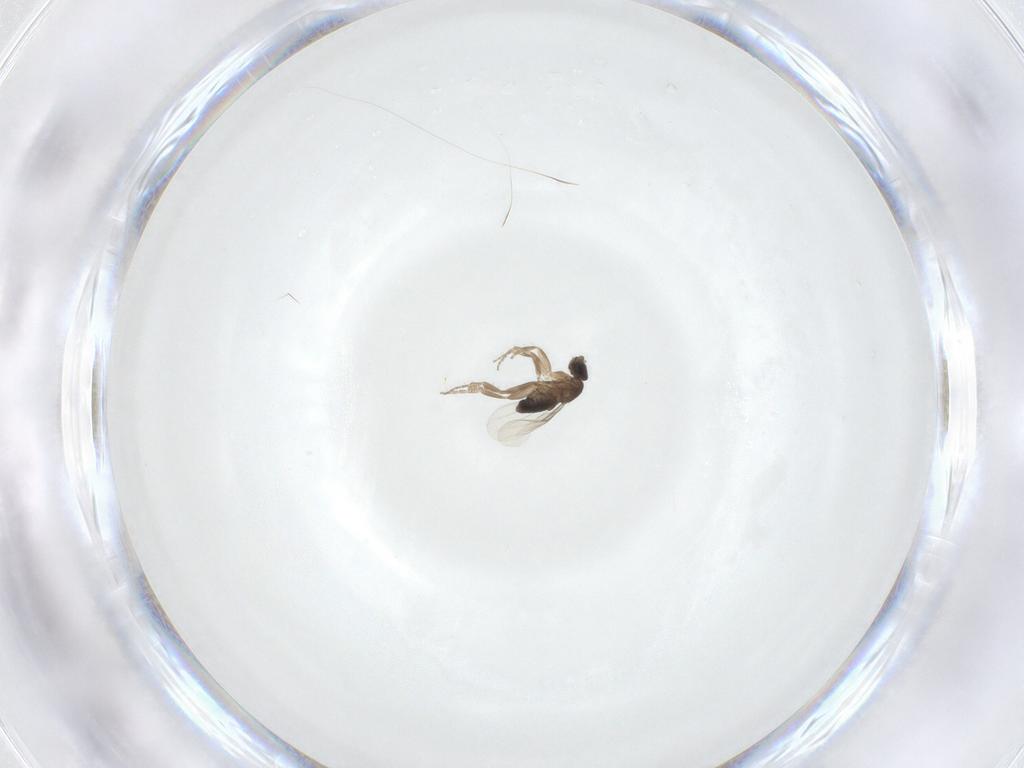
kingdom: Animalia
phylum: Arthropoda
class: Insecta
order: Diptera
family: Phoridae
